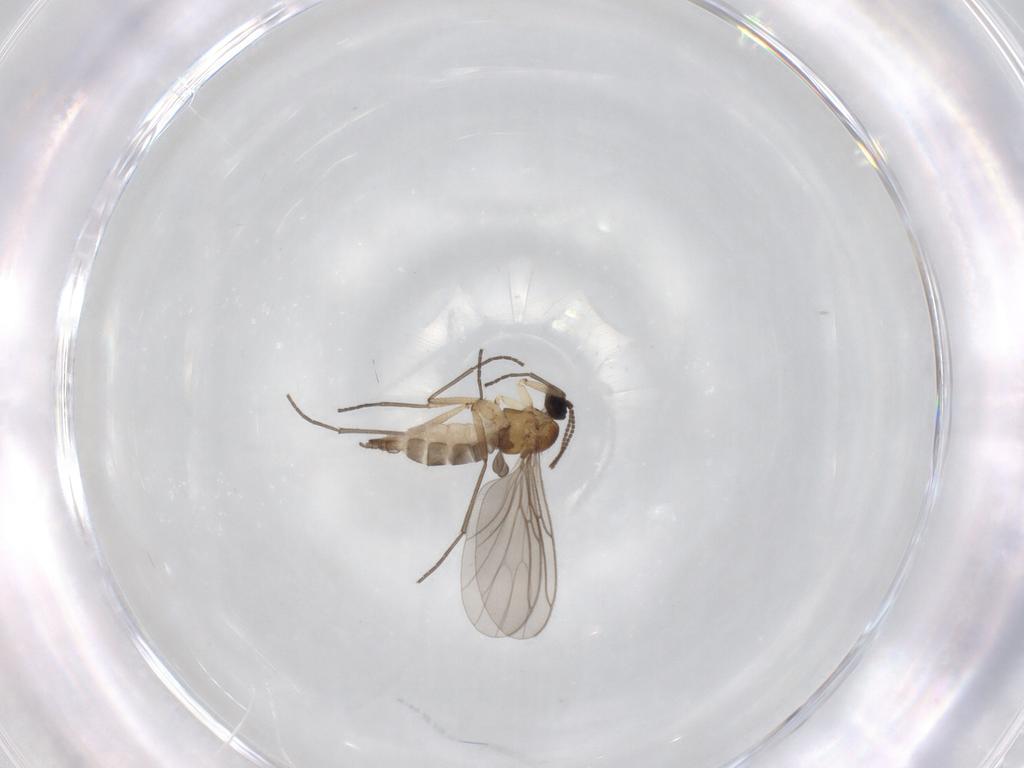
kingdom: Animalia
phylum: Arthropoda
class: Insecta
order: Diptera
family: Sciaridae
